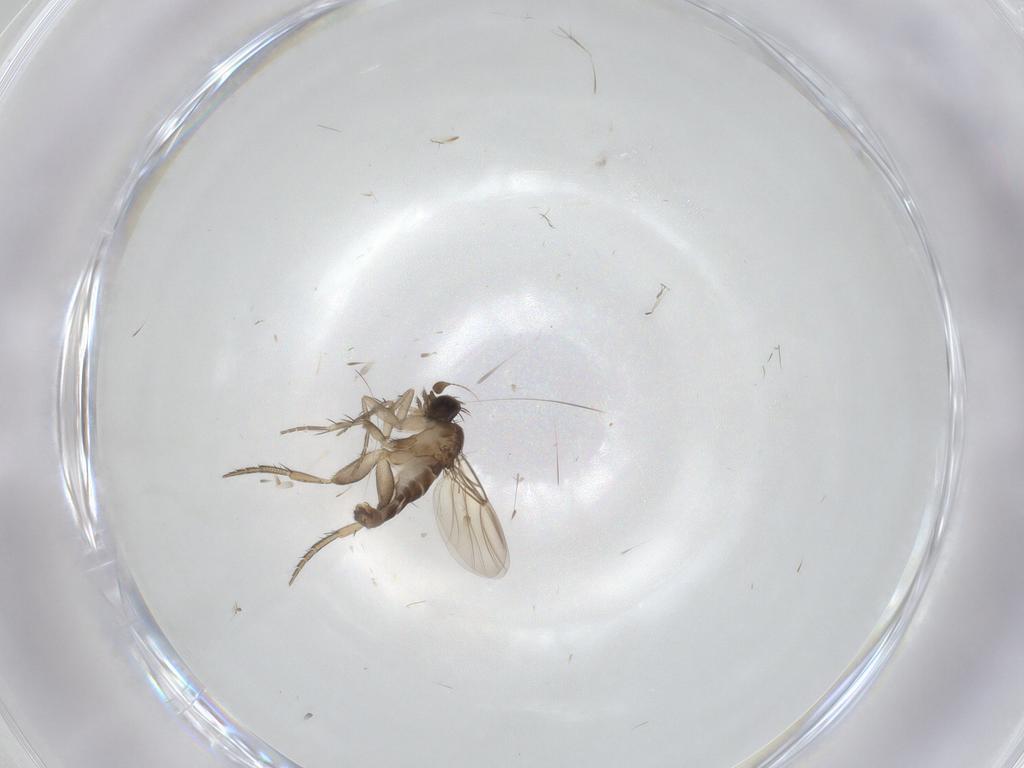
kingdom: Animalia
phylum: Arthropoda
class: Insecta
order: Diptera
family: Phoridae
